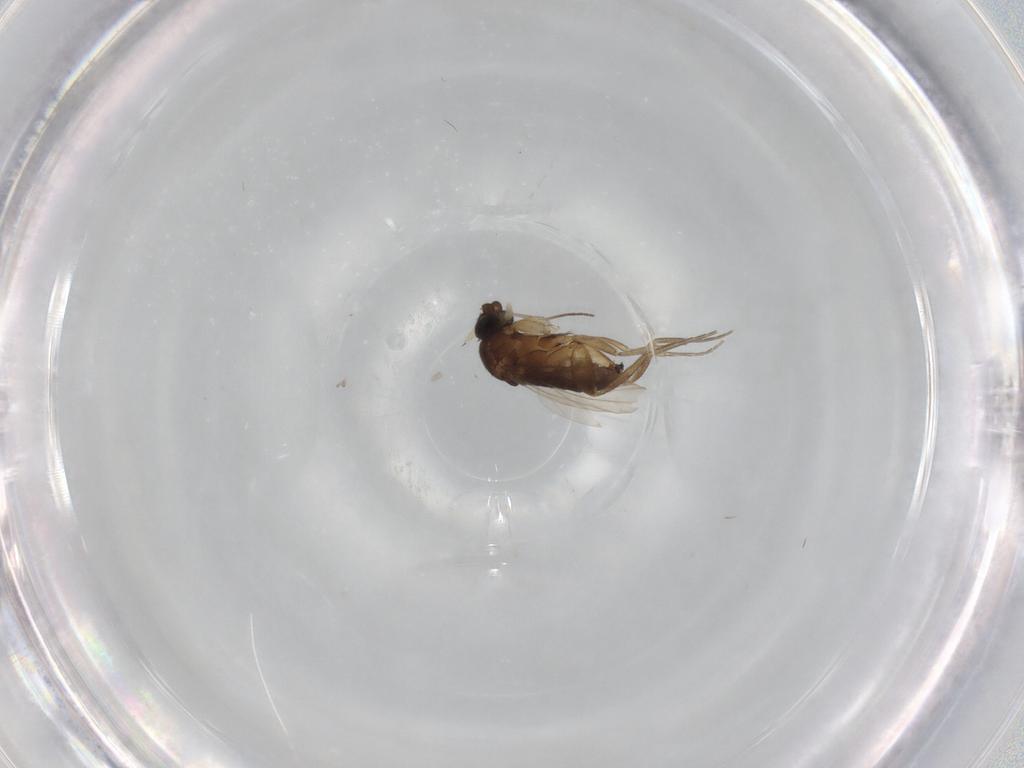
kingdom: Animalia
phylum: Arthropoda
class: Insecta
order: Diptera
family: Phoridae
